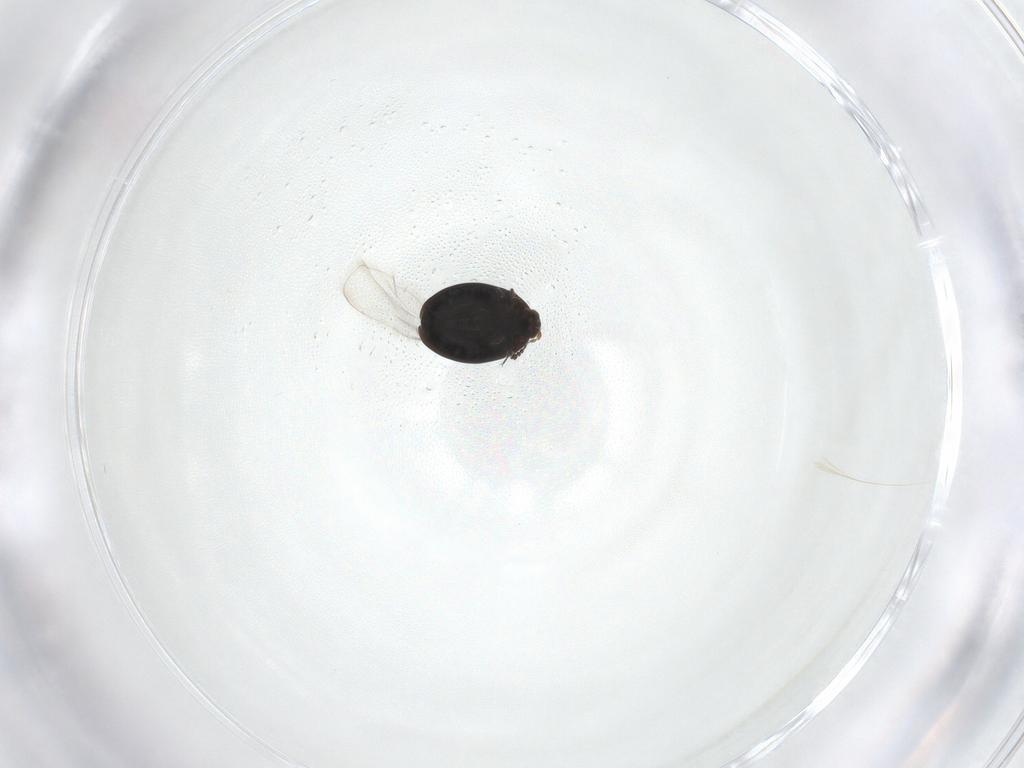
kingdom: Animalia
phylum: Arthropoda
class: Insecta
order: Coleoptera
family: Corylophidae
